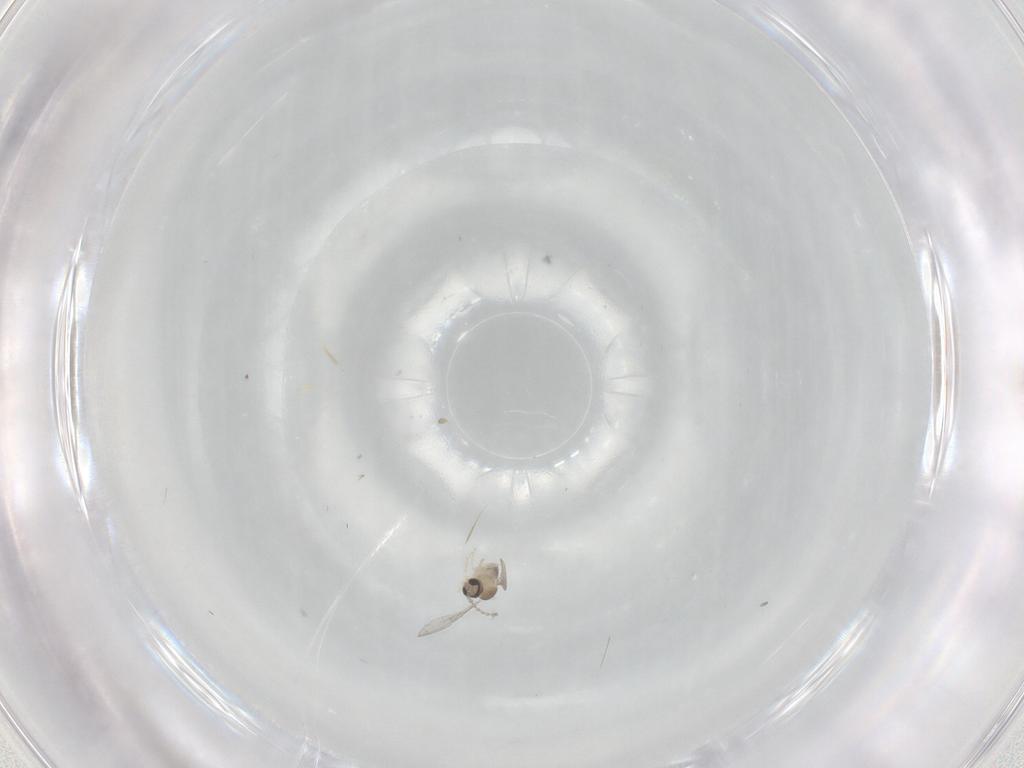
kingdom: Animalia
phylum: Arthropoda
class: Insecta
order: Diptera
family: Cecidomyiidae
